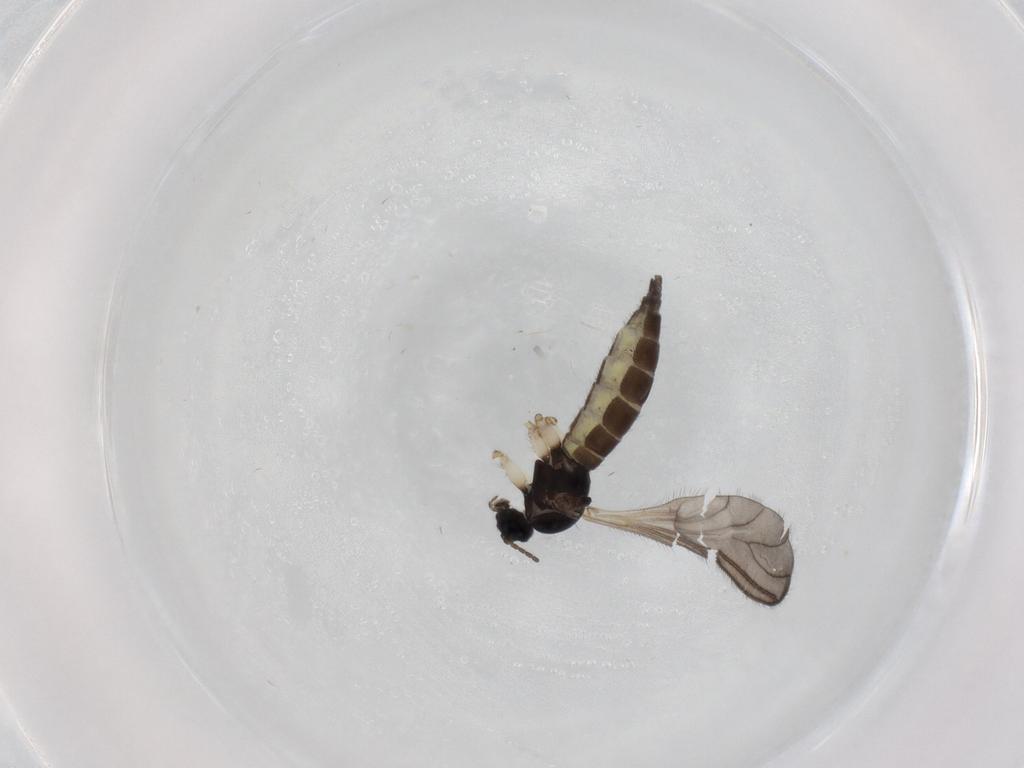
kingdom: Animalia
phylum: Arthropoda
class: Insecta
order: Diptera
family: Sciaridae
